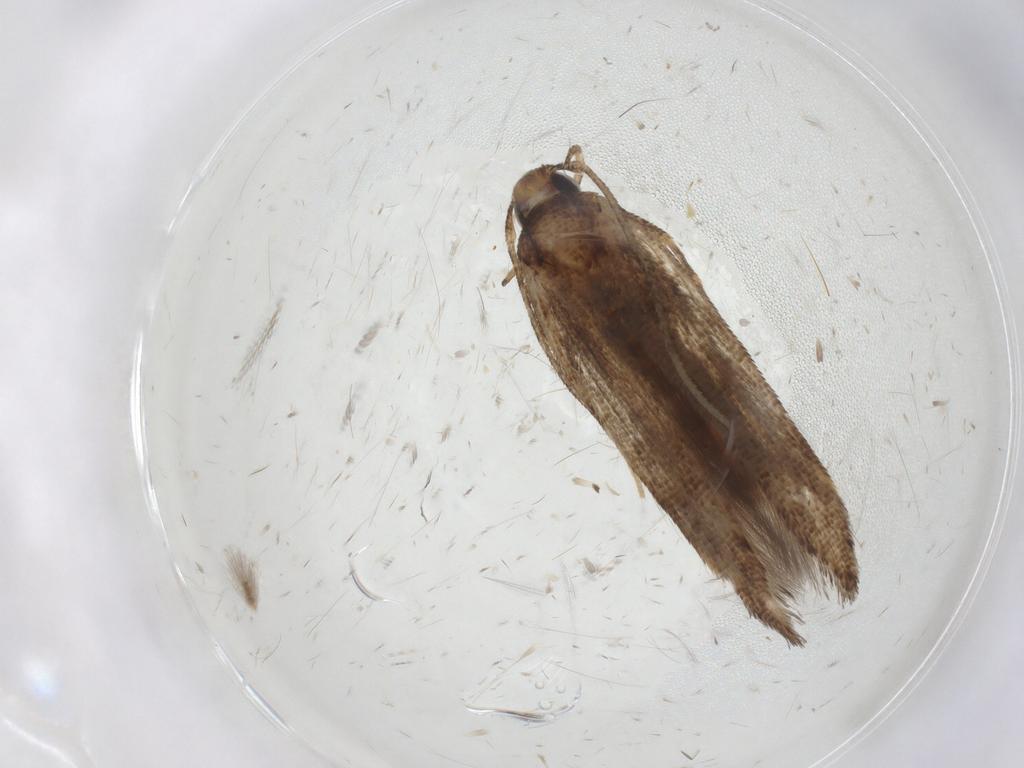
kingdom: Animalia
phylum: Arthropoda
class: Insecta
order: Lepidoptera
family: Cosmopterigidae
